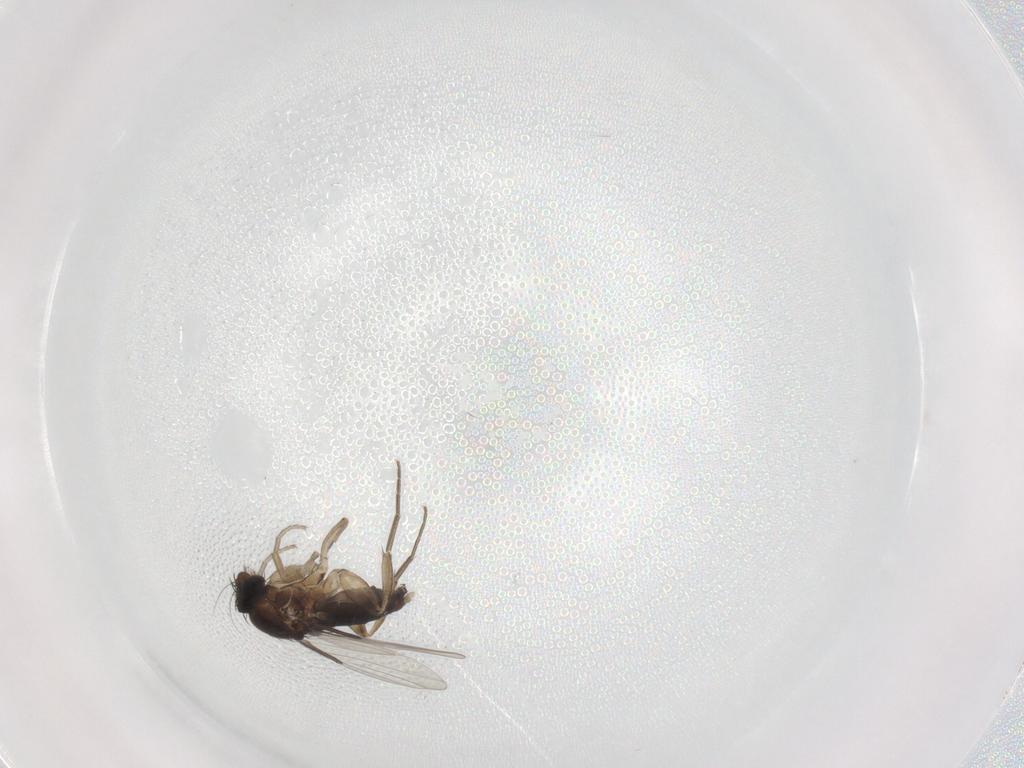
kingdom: Animalia
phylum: Arthropoda
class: Insecta
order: Diptera
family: Phoridae
